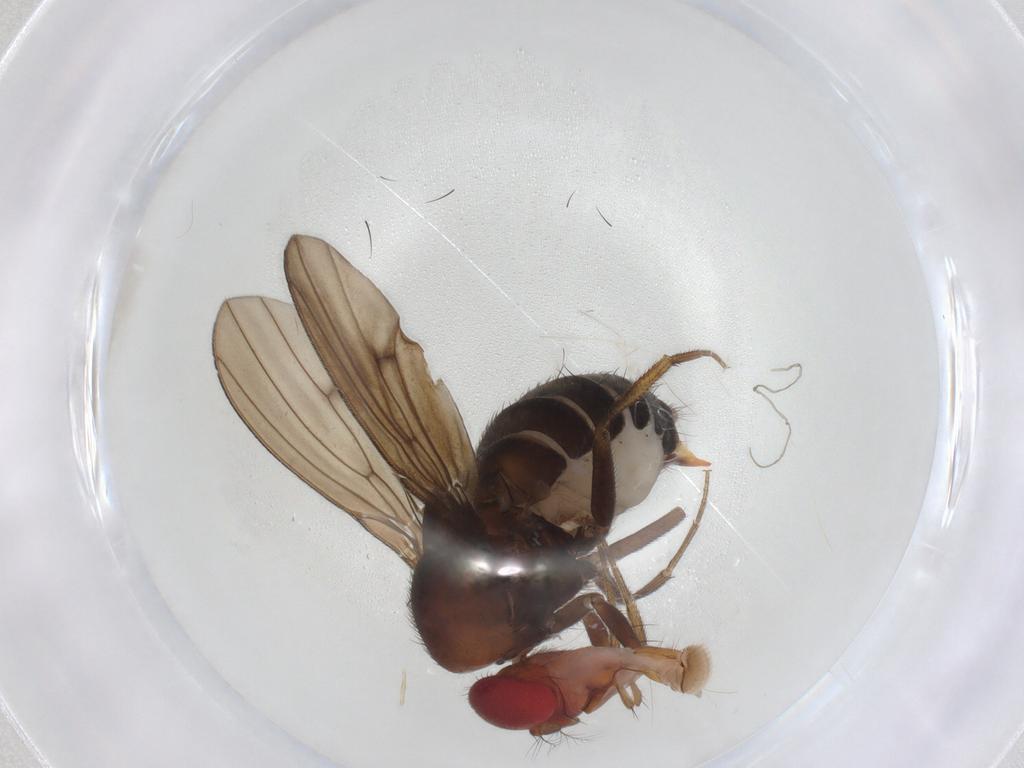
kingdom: Animalia
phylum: Arthropoda
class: Insecta
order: Diptera
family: Drosophilidae
